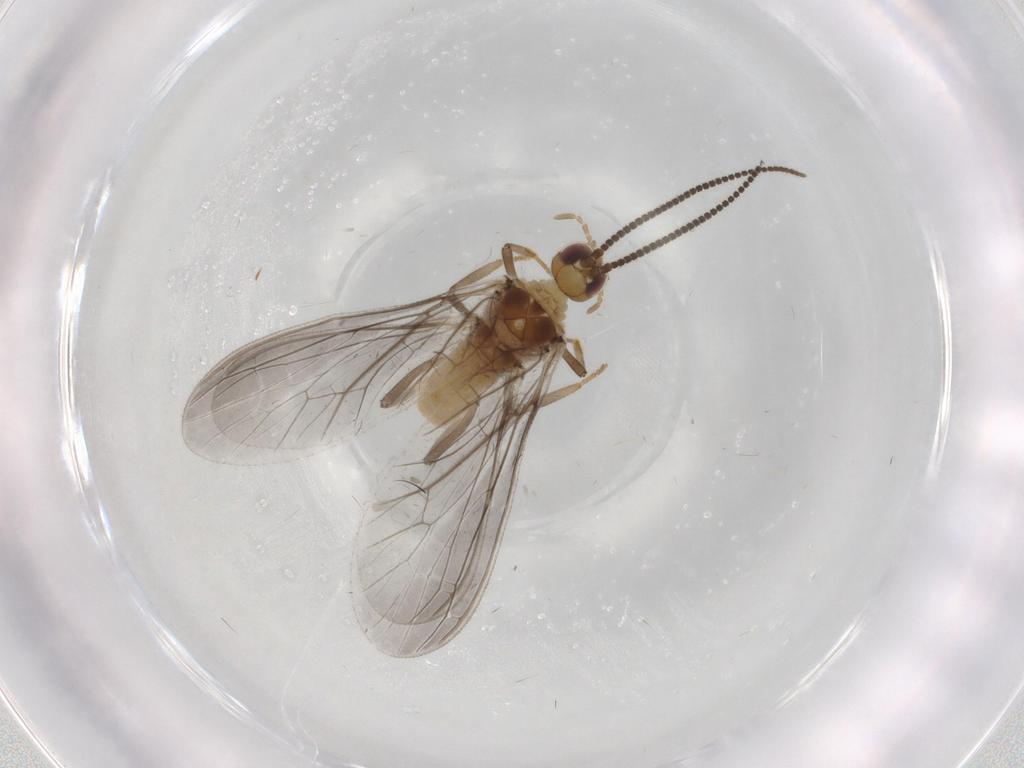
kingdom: Animalia
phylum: Arthropoda
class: Insecta
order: Neuroptera
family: Coniopterygidae
